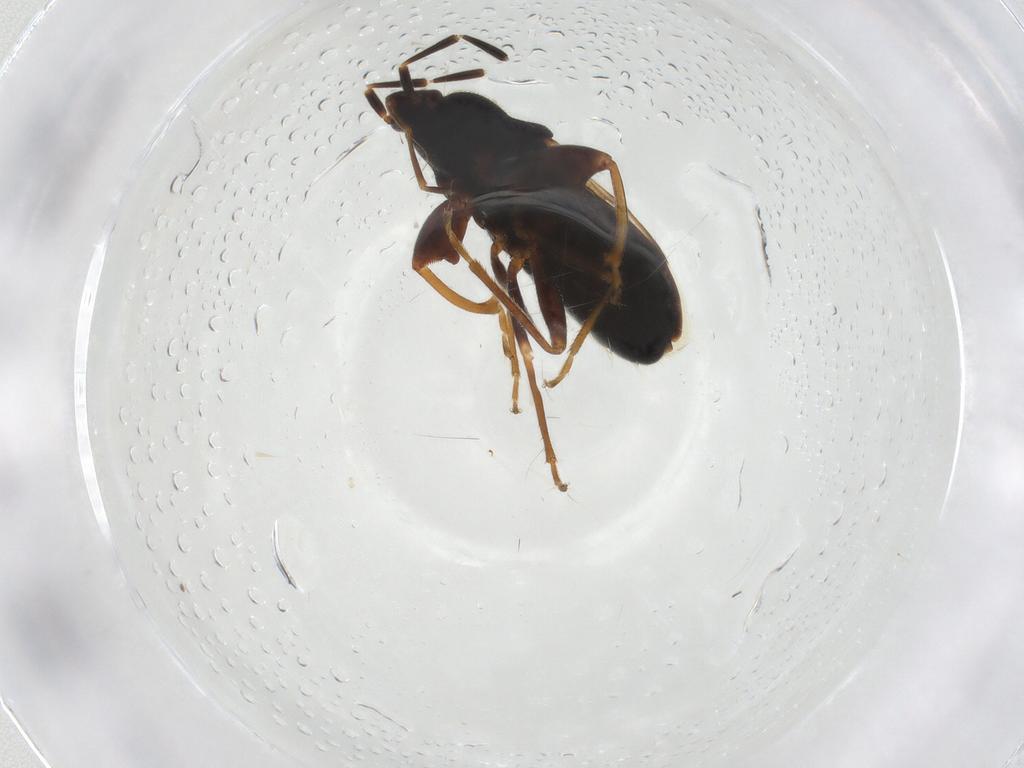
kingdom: Animalia
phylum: Arthropoda
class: Insecta
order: Hemiptera
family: Rhyparochromidae
